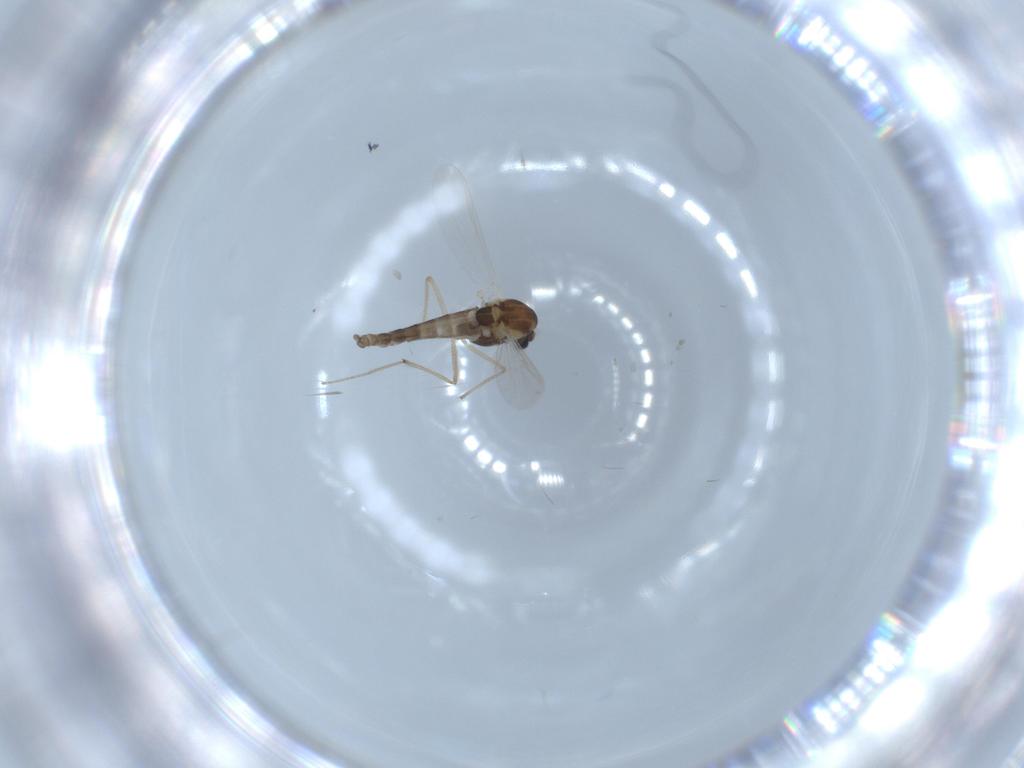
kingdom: Animalia
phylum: Arthropoda
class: Insecta
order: Diptera
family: Chironomidae
